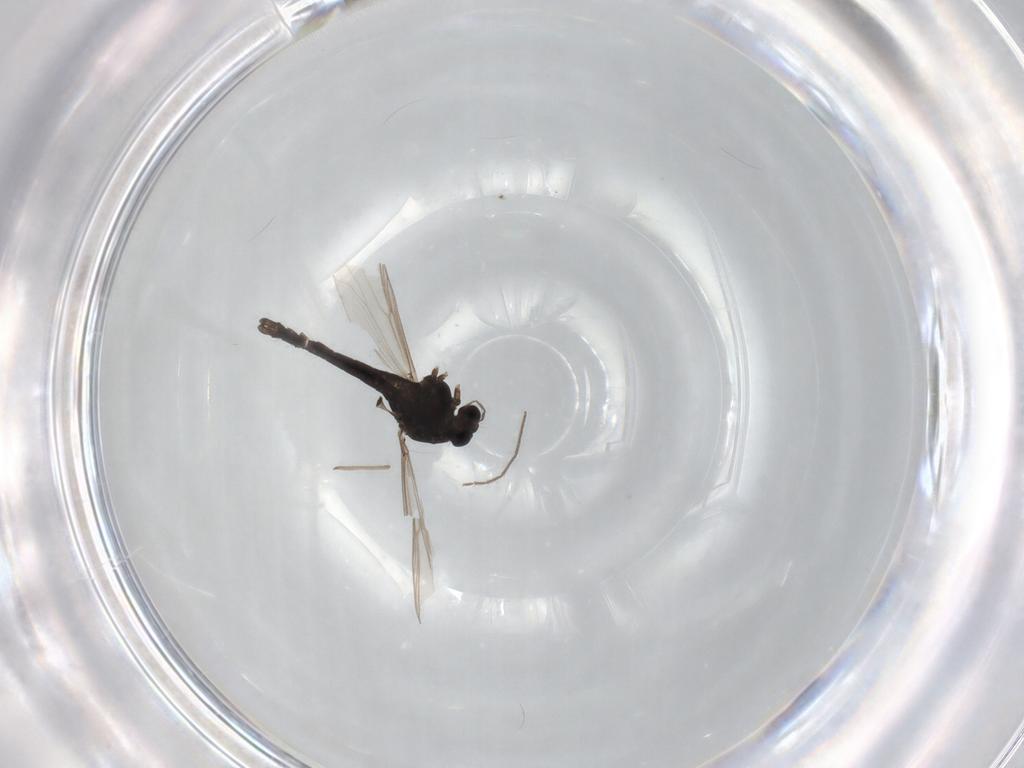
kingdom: Animalia
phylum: Arthropoda
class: Insecta
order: Diptera
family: Chironomidae
